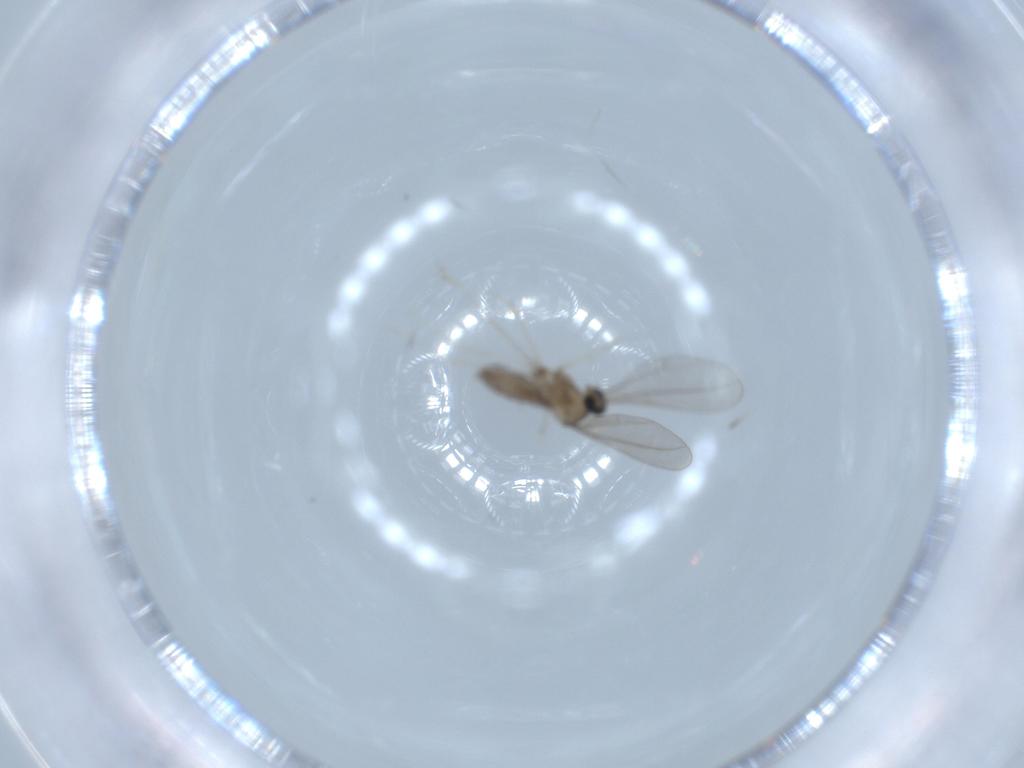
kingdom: Animalia
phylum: Arthropoda
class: Insecta
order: Diptera
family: Cecidomyiidae
